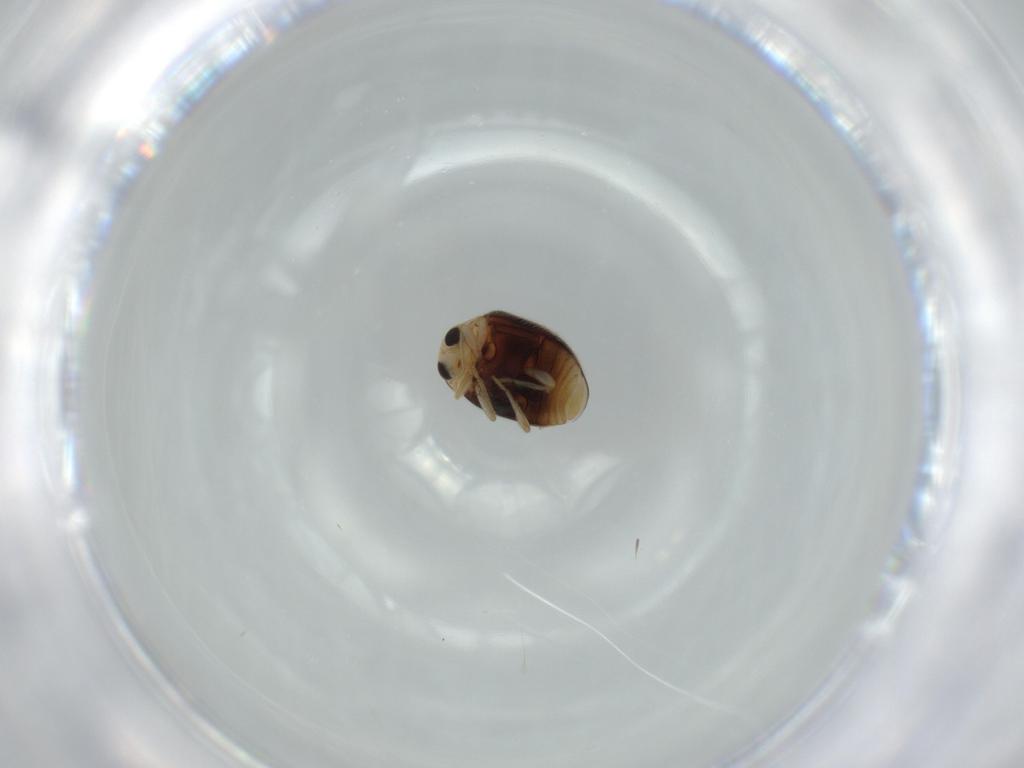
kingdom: Animalia
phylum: Arthropoda
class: Insecta
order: Coleoptera
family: Coccinellidae
